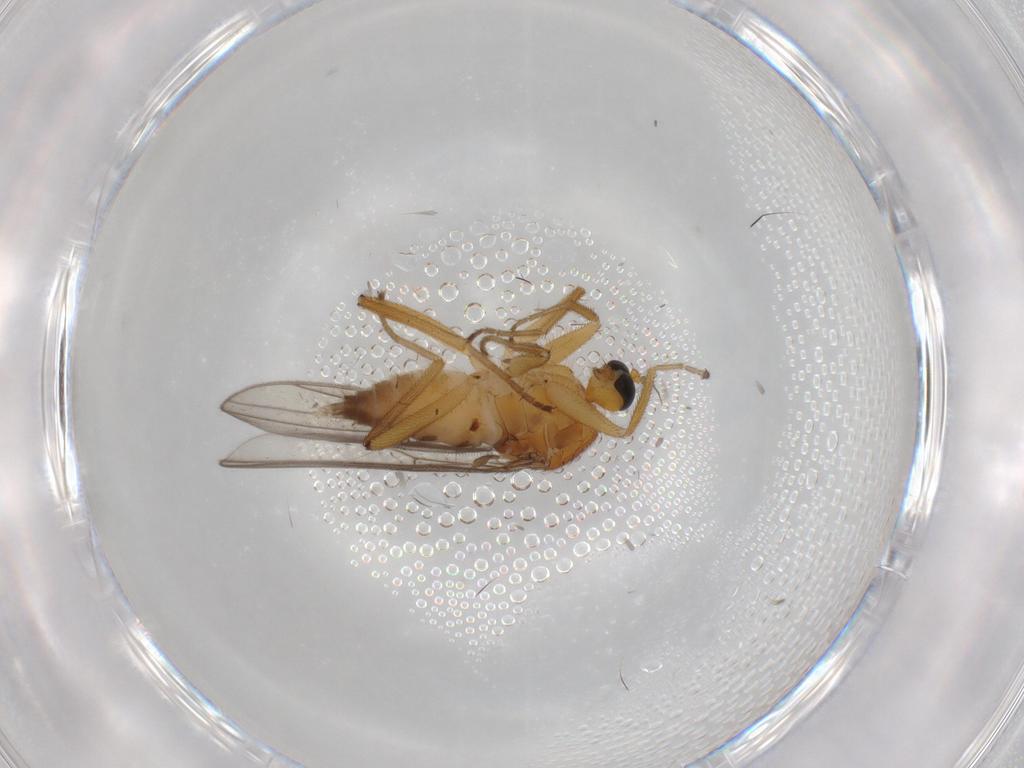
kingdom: Animalia
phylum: Arthropoda
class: Insecta
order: Diptera
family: Hybotidae
